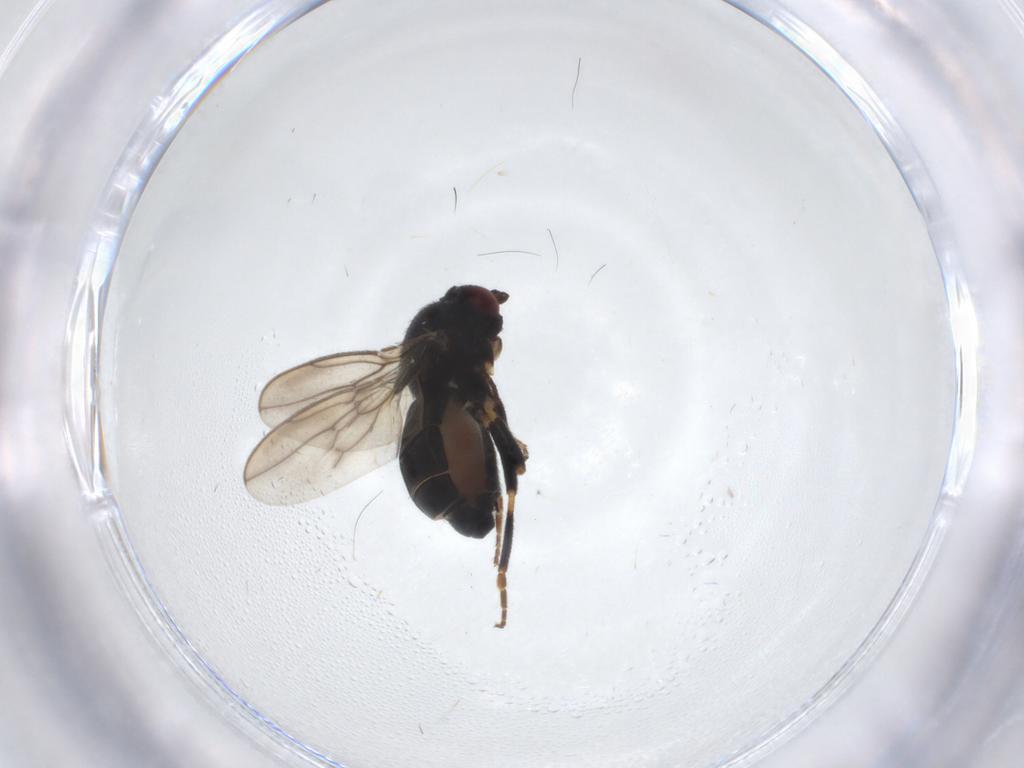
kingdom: Animalia
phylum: Arthropoda
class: Insecta
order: Diptera
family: Sphaeroceridae
